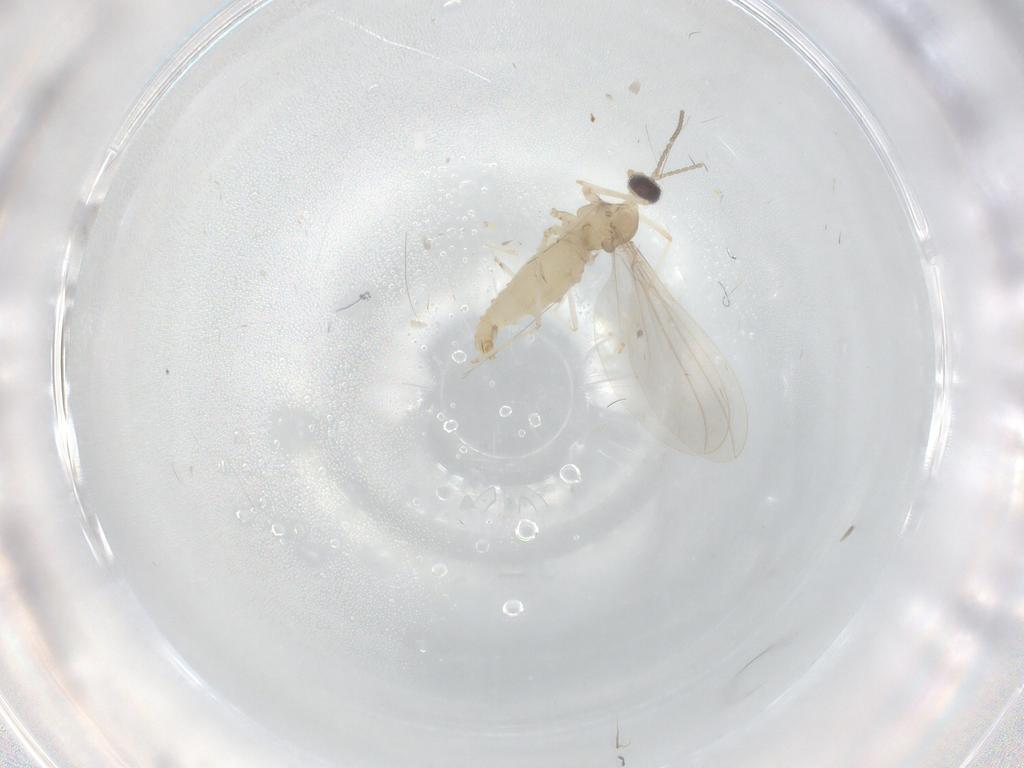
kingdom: Animalia
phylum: Arthropoda
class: Insecta
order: Diptera
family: Cecidomyiidae
